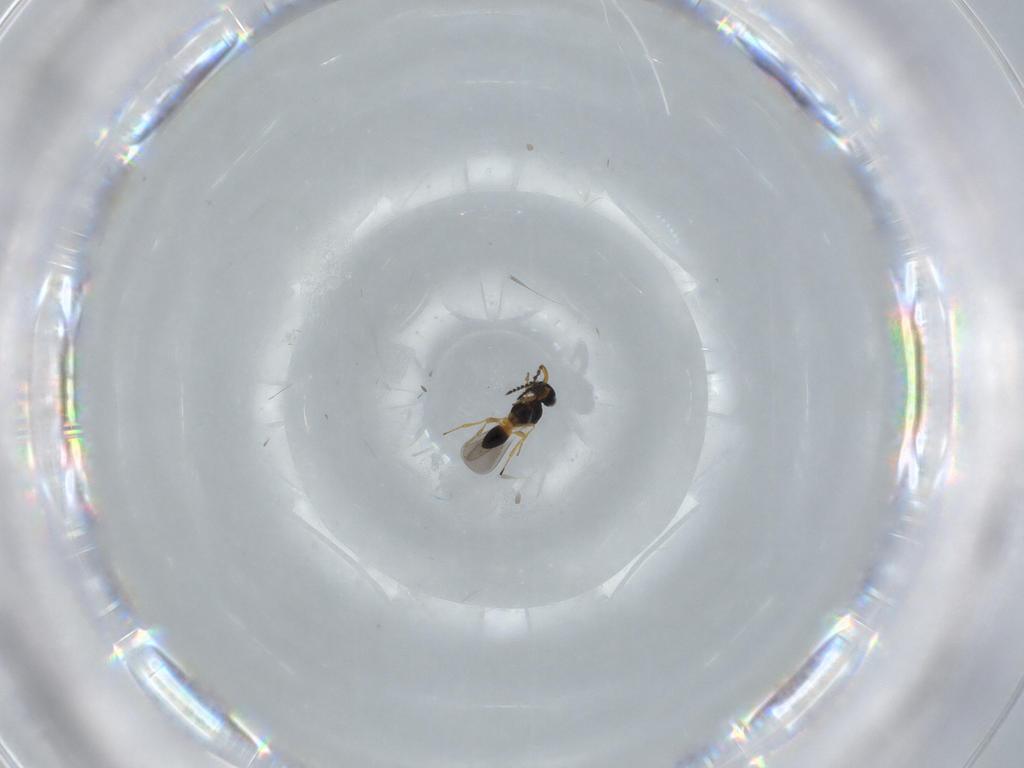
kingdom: Animalia
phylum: Arthropoda
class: Insecta
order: Hymenoptera
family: Platygastridae
